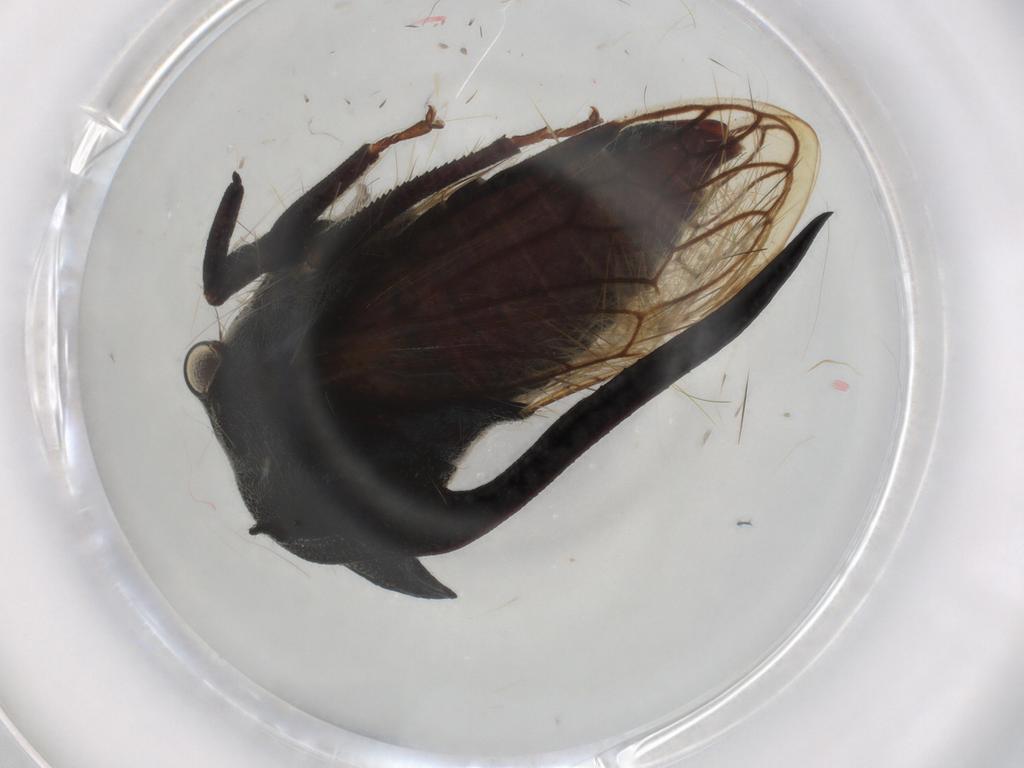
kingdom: Animalia
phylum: Arthropoda
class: Insecta
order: Hemiptera
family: Membracidae
